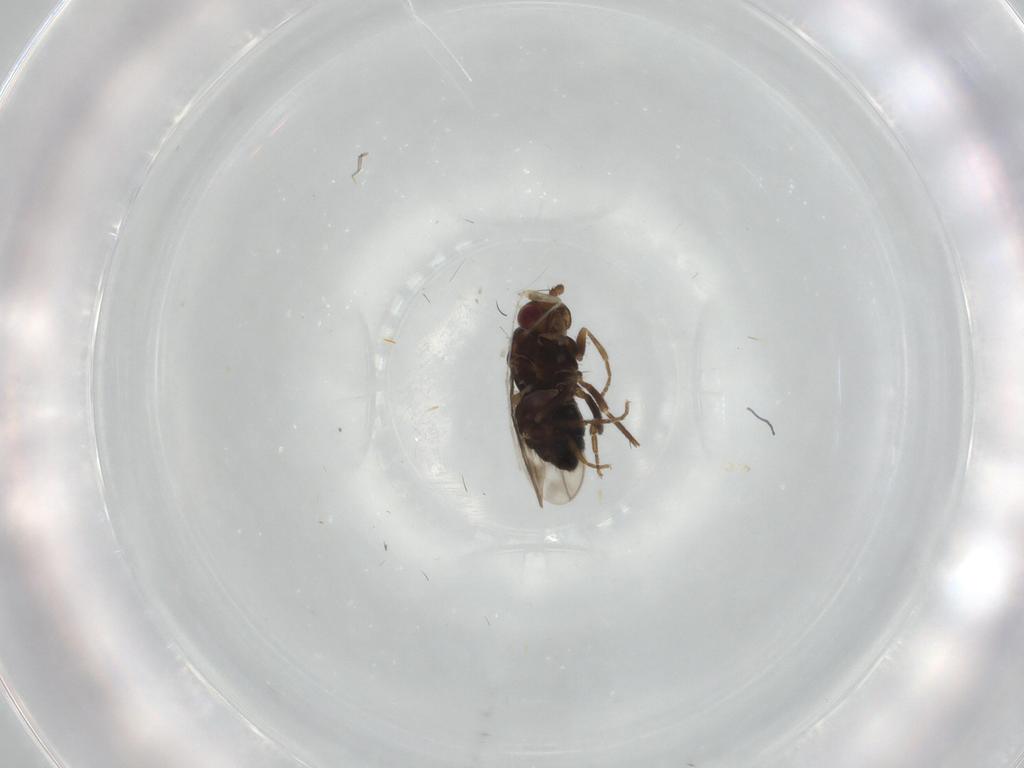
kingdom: Animalia
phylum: Arthropoda
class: Insecta
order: Diptera
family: Sphaeroceridae
